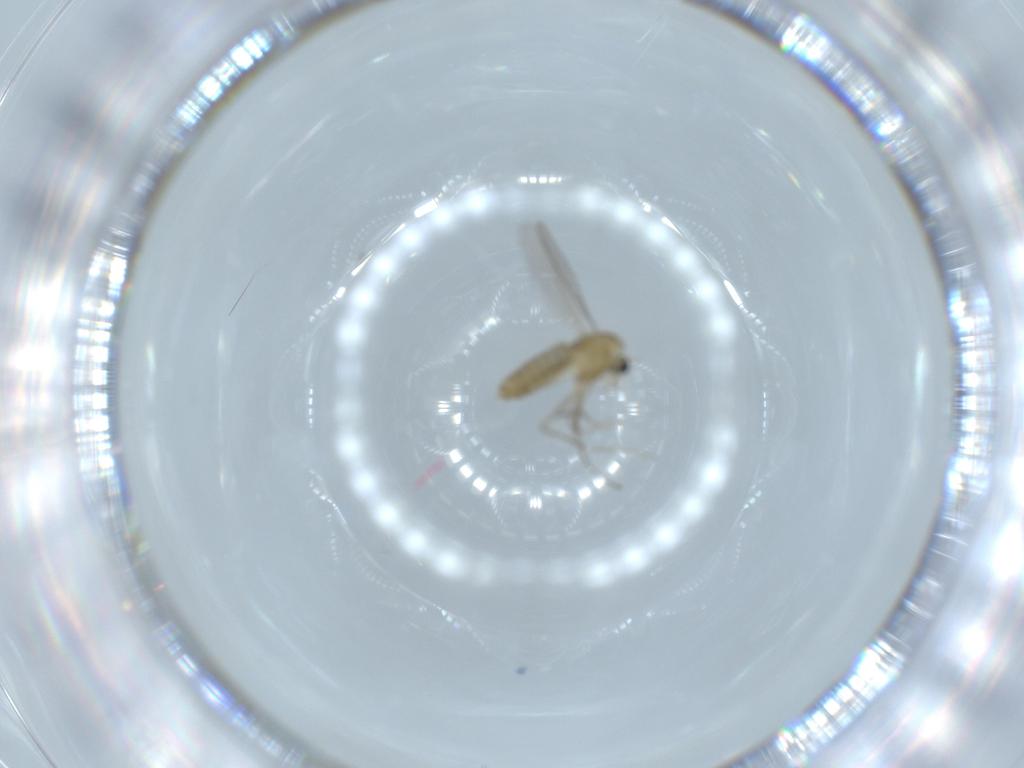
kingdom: Animalia
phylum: Arthropoda
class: Insecta
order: Diptera
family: Chironomidae
